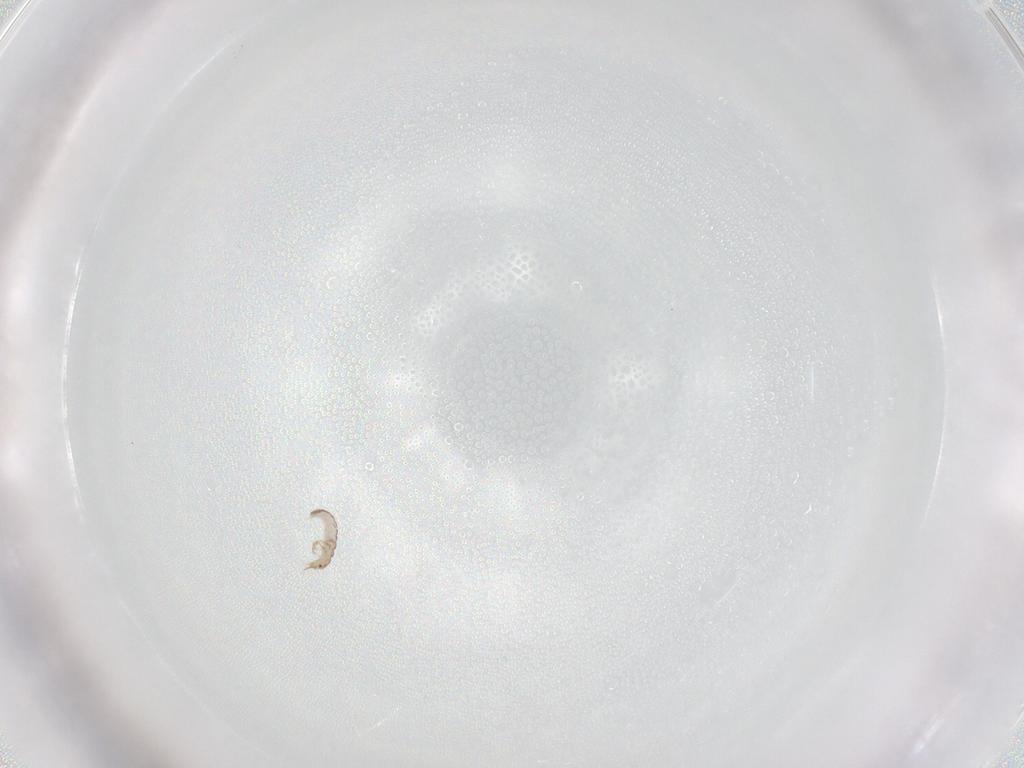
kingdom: Animalia
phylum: Arthropoda
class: Insecta
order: Neuroptera
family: Mantispidae
